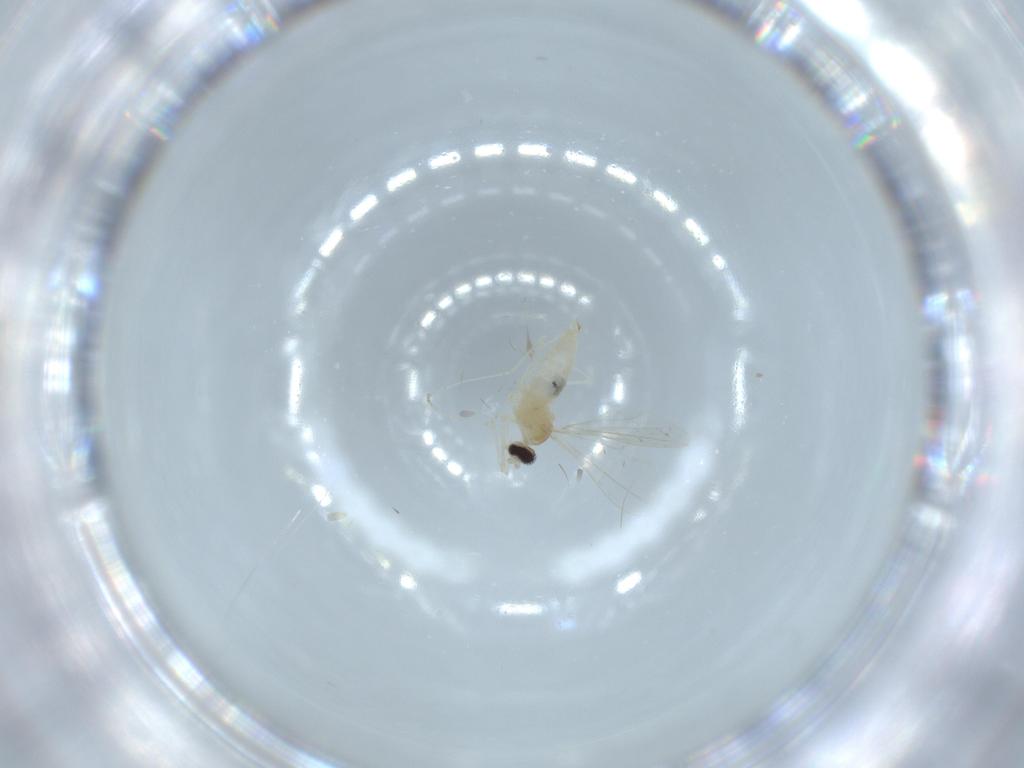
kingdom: Animalia
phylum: Arthropoda
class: Insecta
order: Diptera
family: Cecidomyiidae
